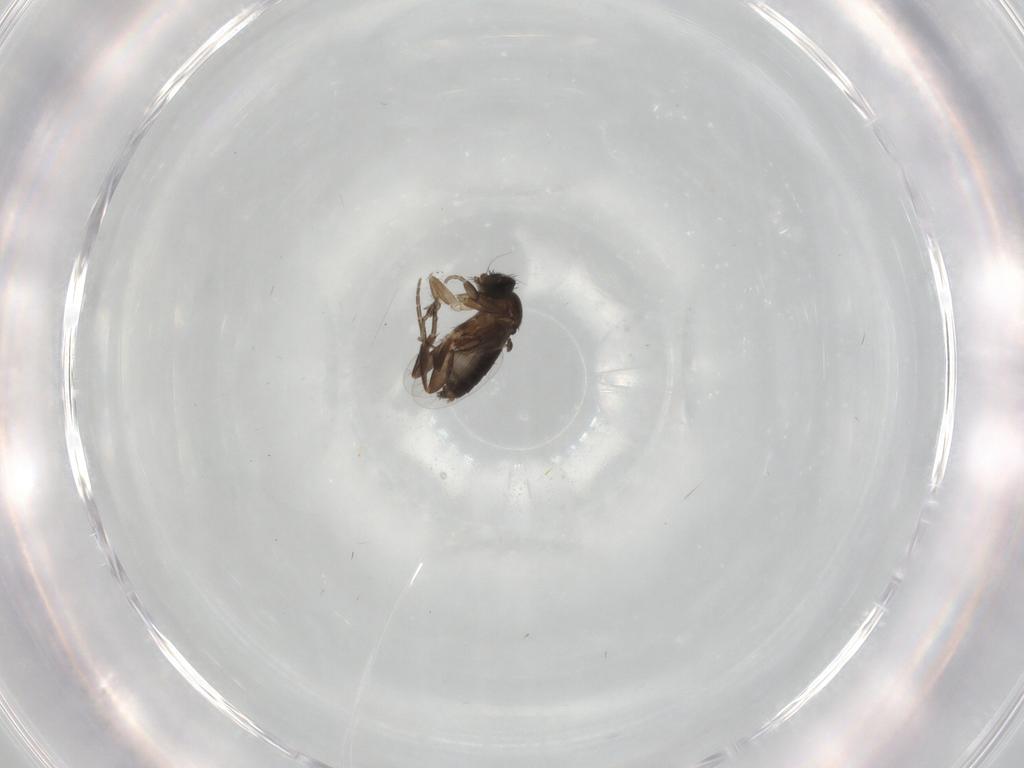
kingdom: Animalia
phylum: Arthropoda
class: Insecta
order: Diptera
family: Phoridae
